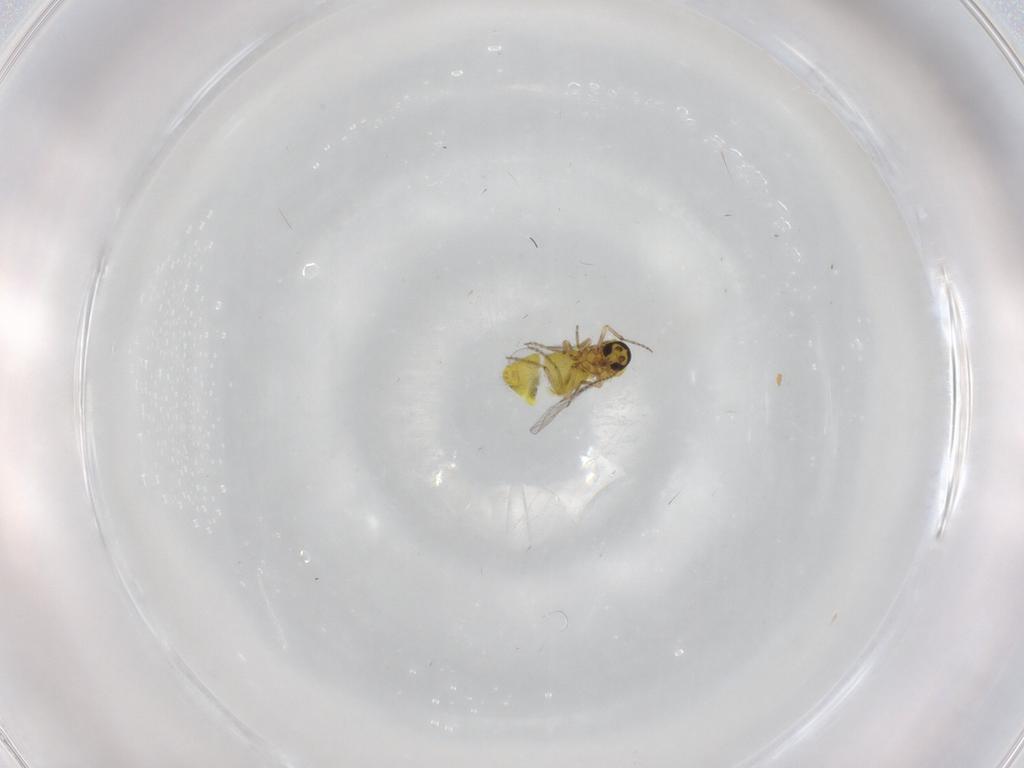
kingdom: Animalia
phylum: Arthropoda
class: Insecta
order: Diptera
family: Ceratopogonidae
